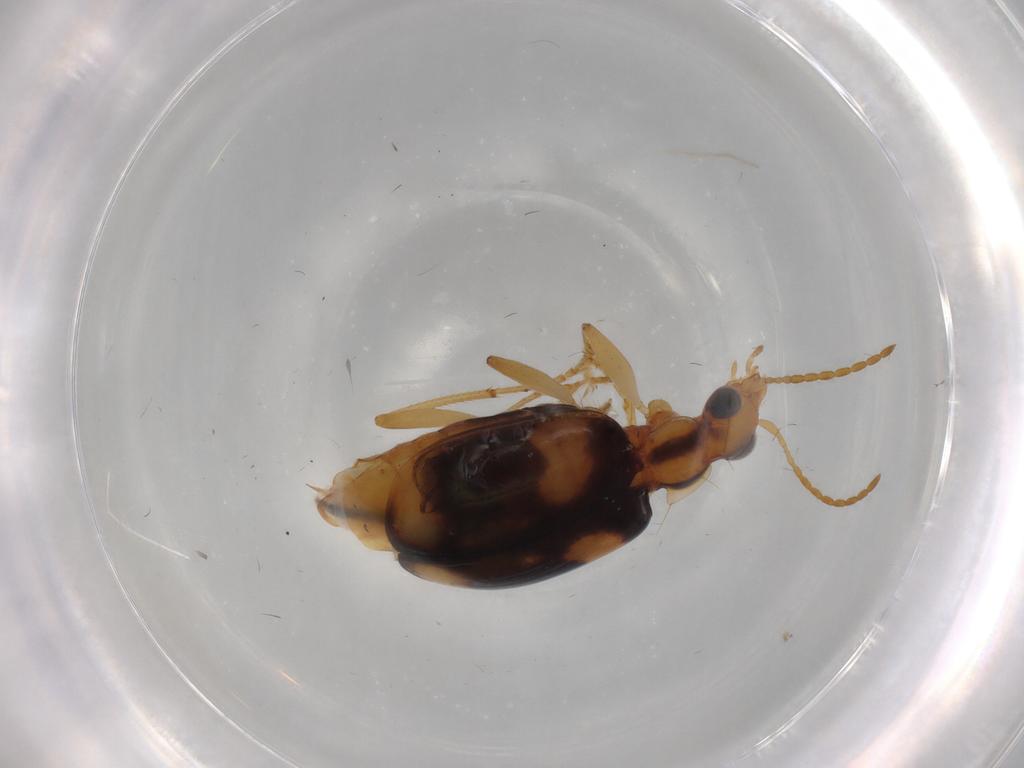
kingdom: Animalia
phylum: Arthropoda
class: Insecta
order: Coleoptera
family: Carabidae
